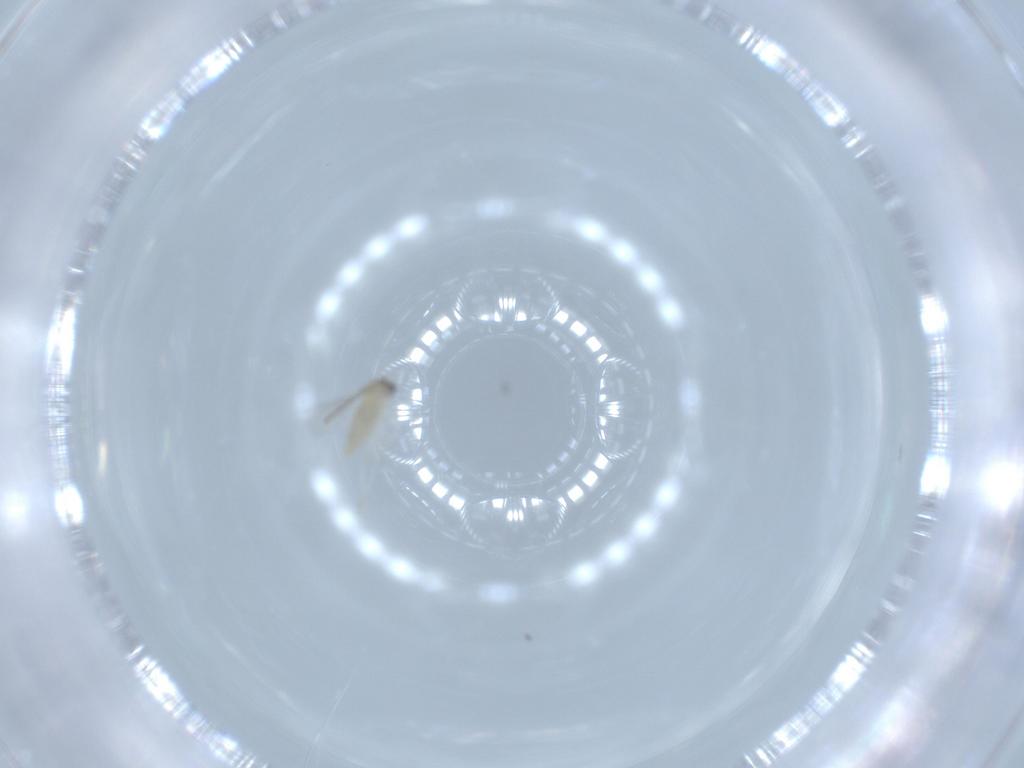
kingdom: Animalia
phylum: Arthropoda
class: Insecta
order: Diptera
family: Cecidomyiidae
